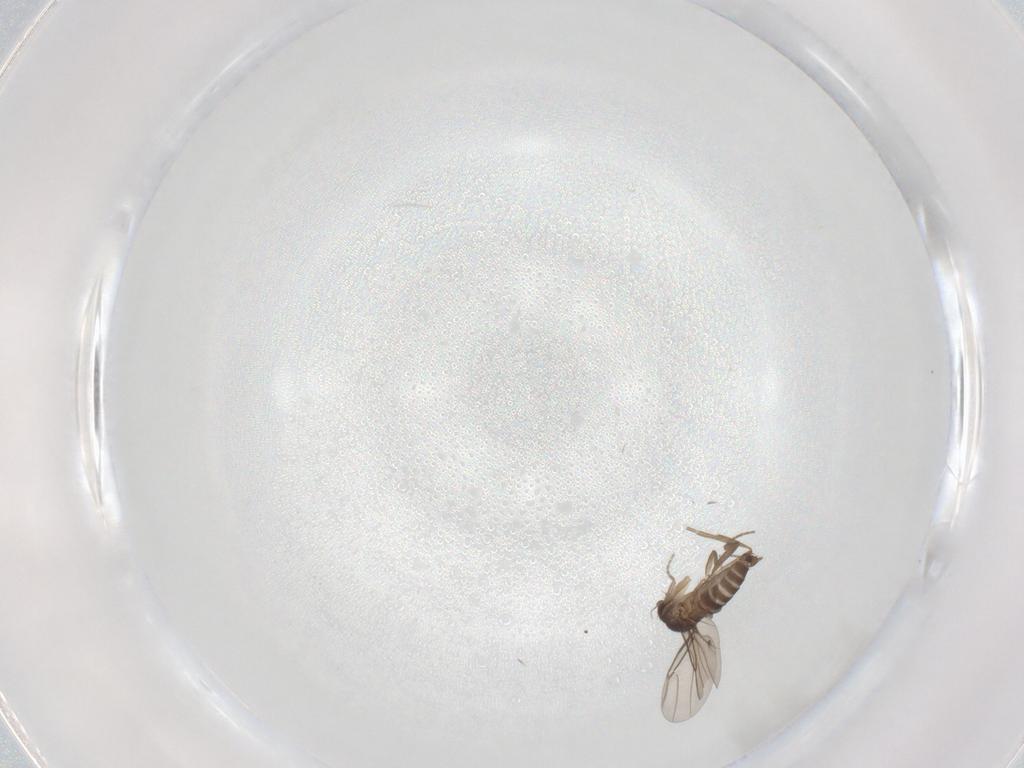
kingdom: Animalia
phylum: Arthropoda
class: Insecta
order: Diptera
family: Phoridae
